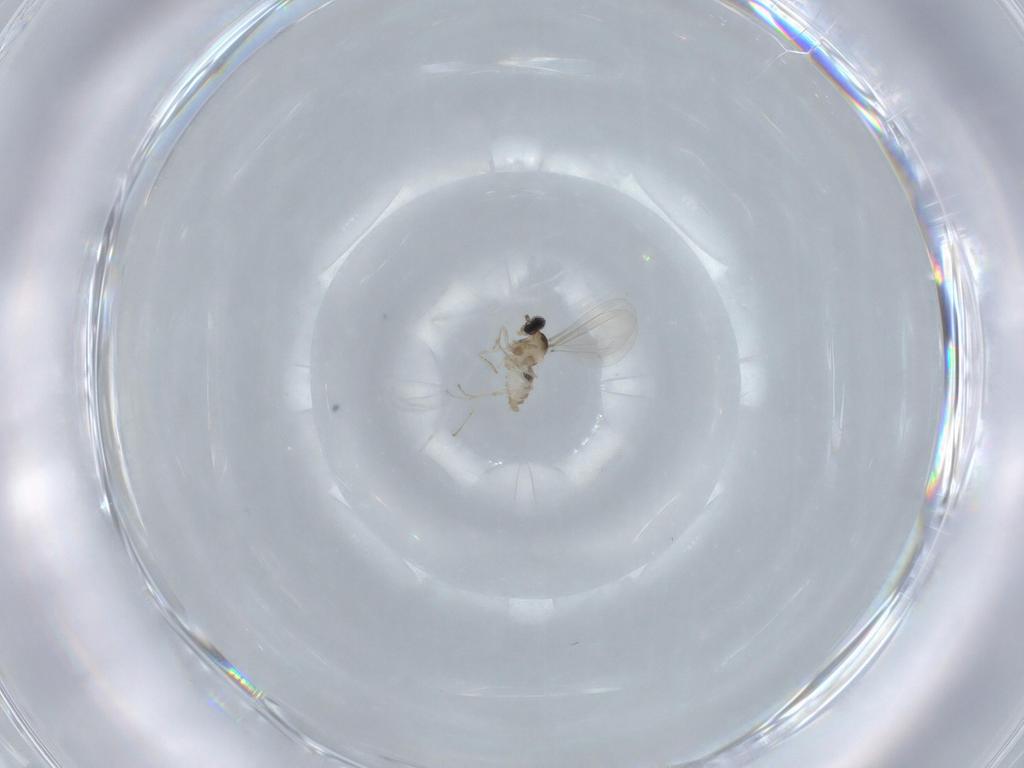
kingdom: Animalia
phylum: Arthropoda
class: Insecta
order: Diptera
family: Cecidomyiidae
